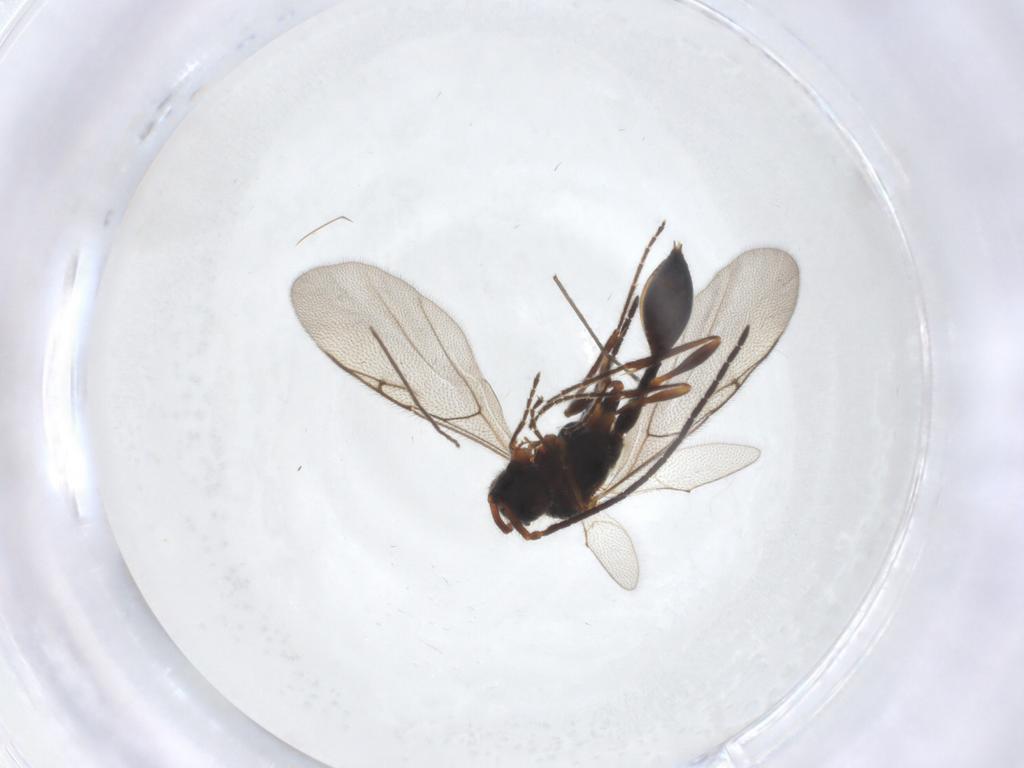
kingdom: Animalia
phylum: Arthropoda
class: Insecta
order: Hymenoptera
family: Diapriidae
